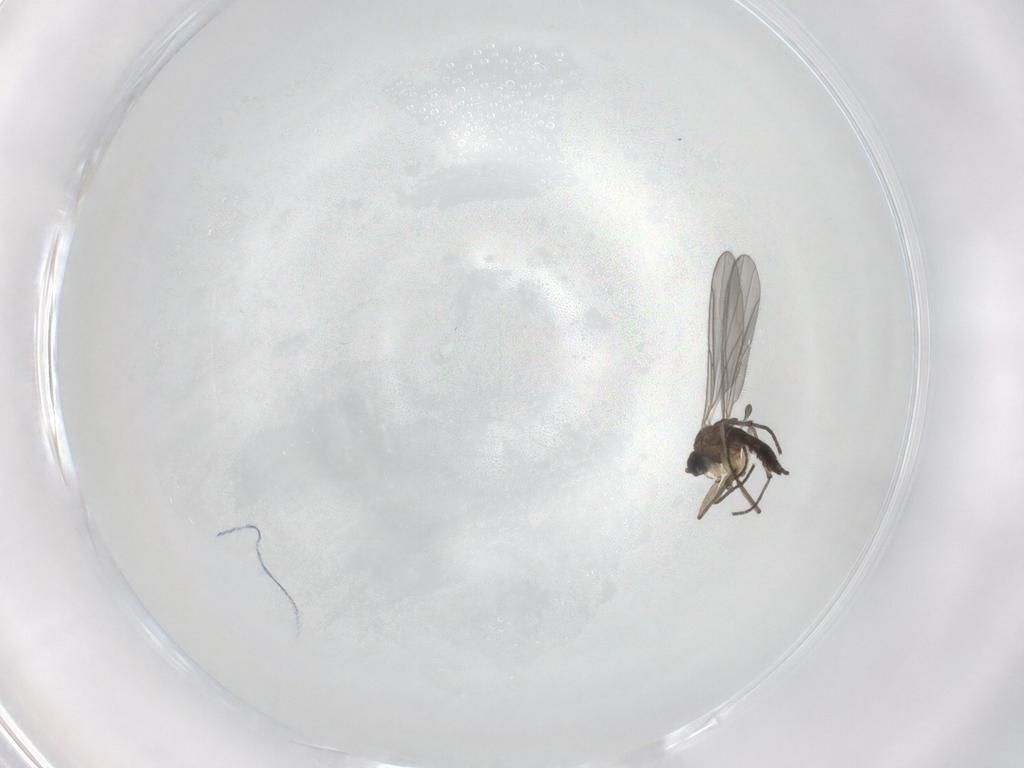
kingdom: Animalia
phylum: Arthropoda
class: Insecta
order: Diptera
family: Sciaridae
